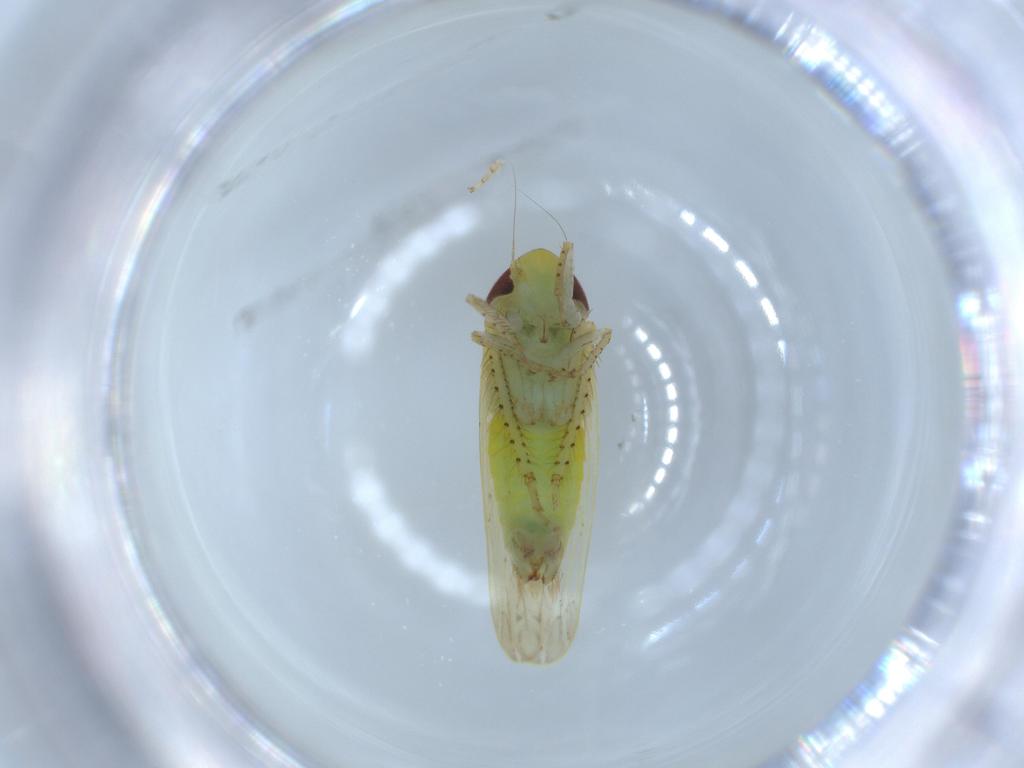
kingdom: Animalia
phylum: Arthropoda
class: Insecta
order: Hemiptera
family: Cicadellidae
